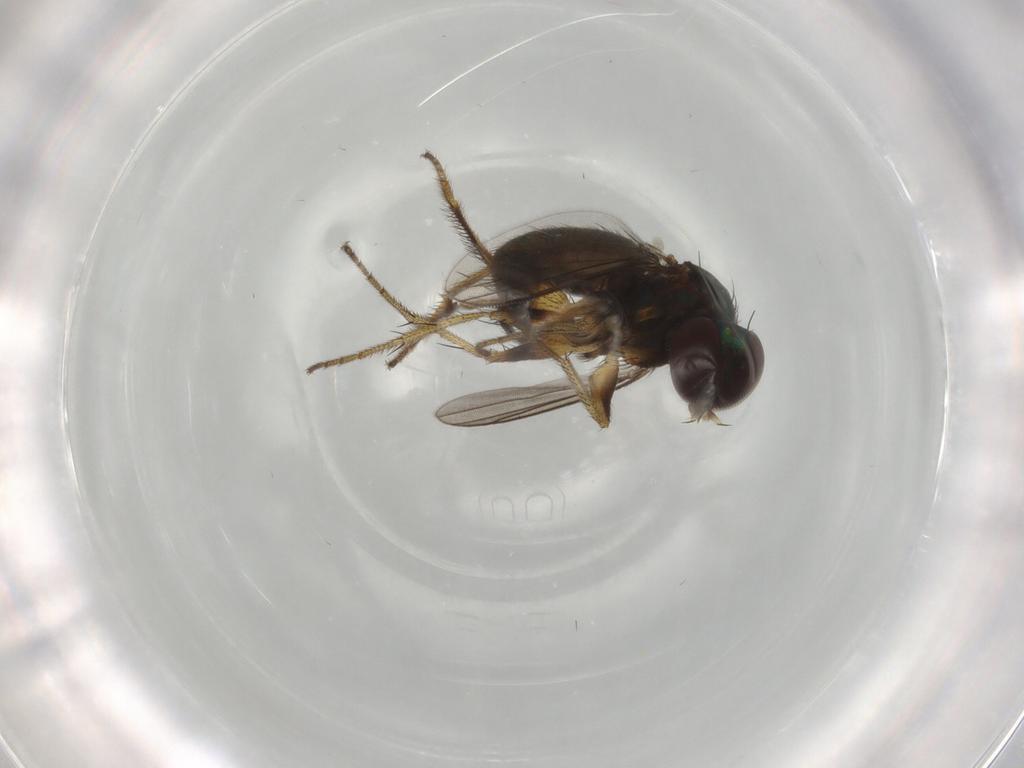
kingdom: Animalia
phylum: Arthropoda
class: Insecta
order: Diptera
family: Dolichopodidae
